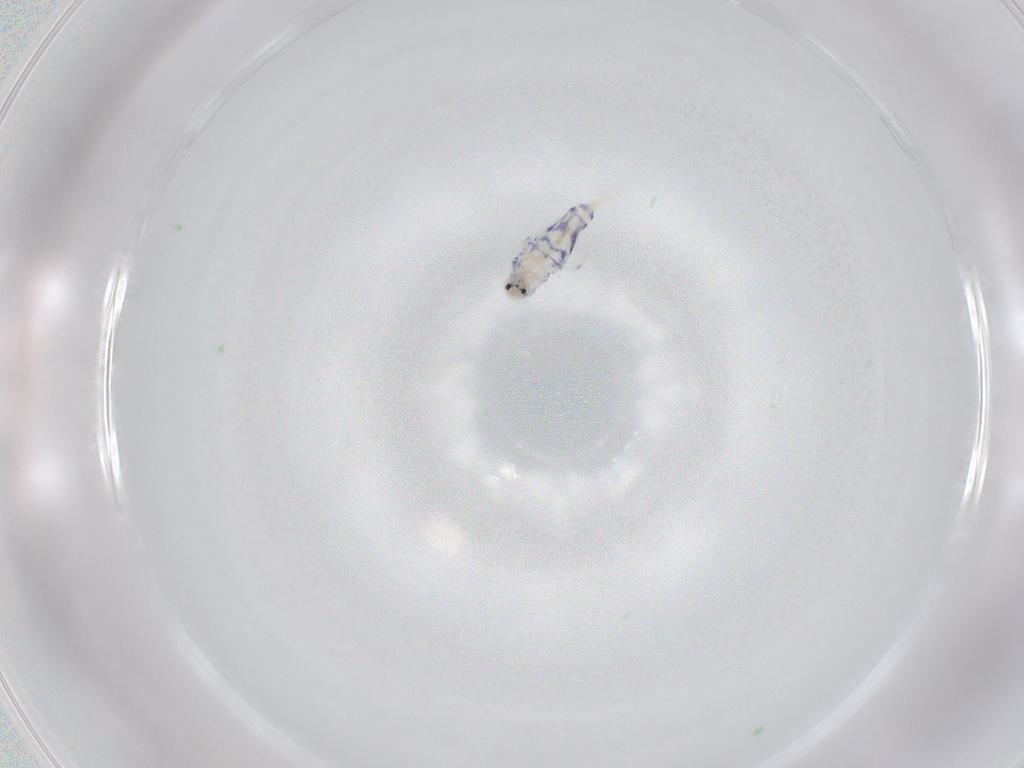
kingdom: Animalia
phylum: Arthropoda
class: Collembola
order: Entomobryomorpha
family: Entomobryidae
